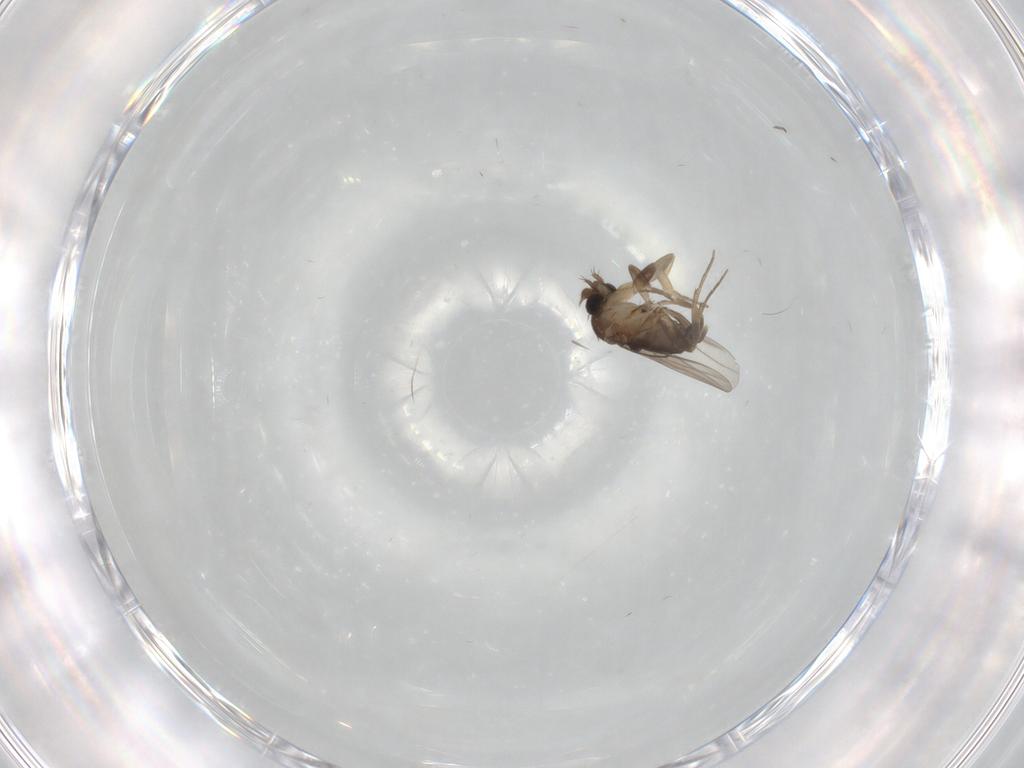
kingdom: Animalia
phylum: Arthropoda
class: Insecta
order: Diptera
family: Phoridae
